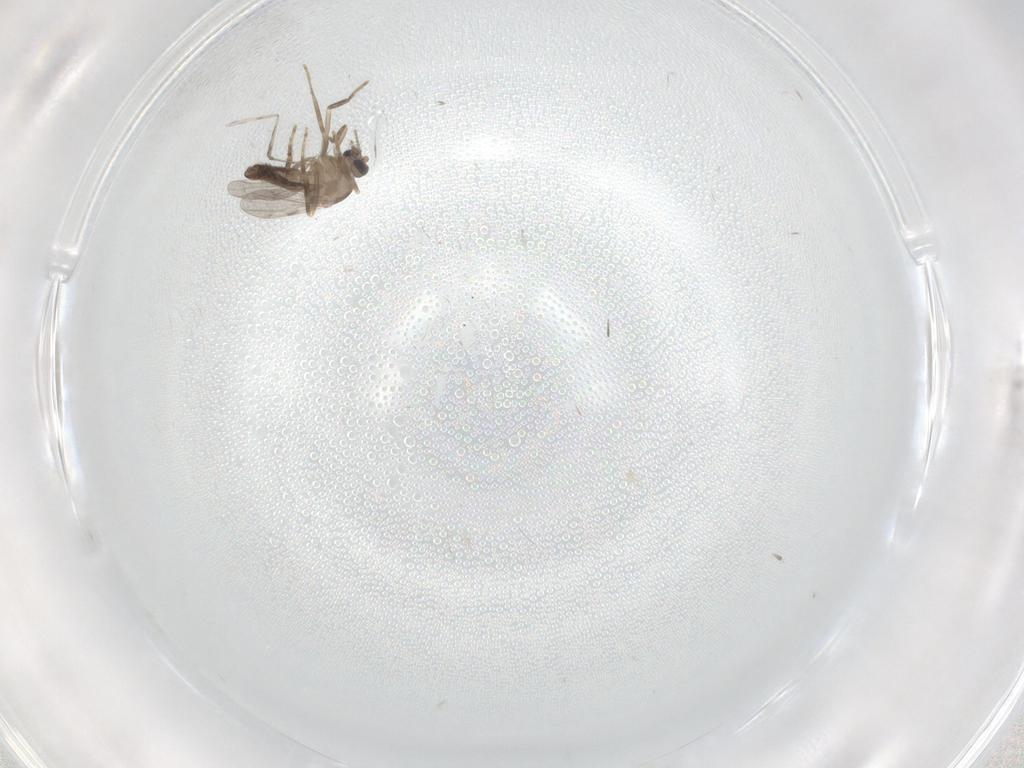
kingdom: Animalia
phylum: Arthropoda
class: Insecta
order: Diptera
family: Ceratopogonidae
